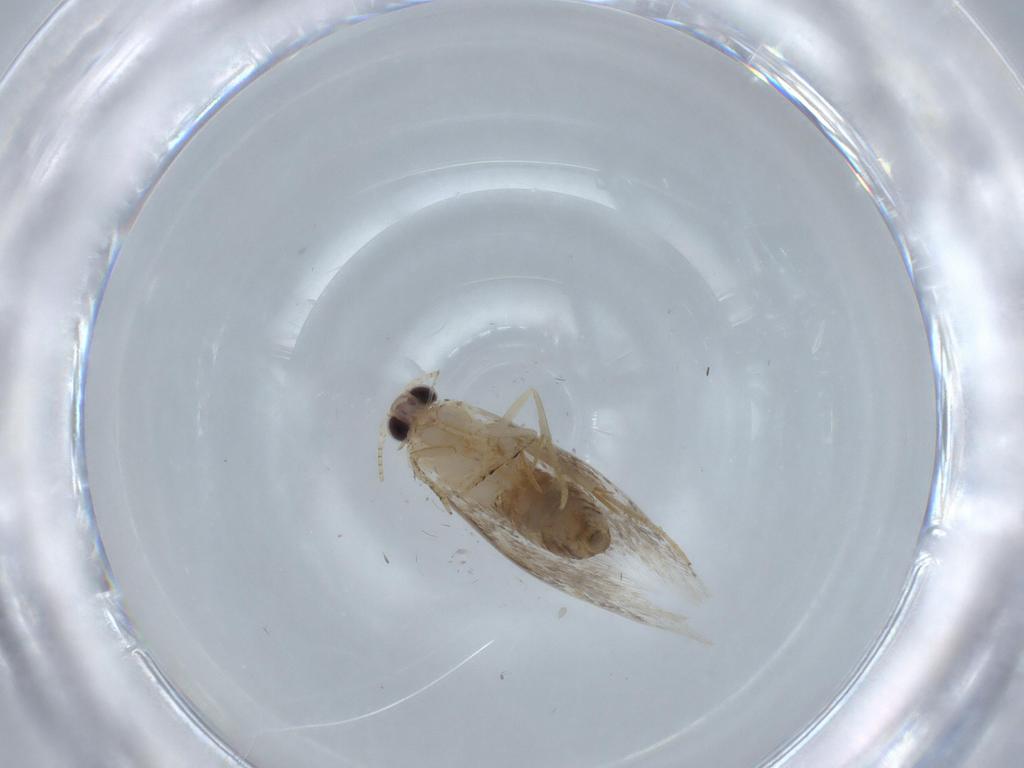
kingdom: Animalia
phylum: Arthropoda
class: Insecta
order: Lepidoptera
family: Tineidae
